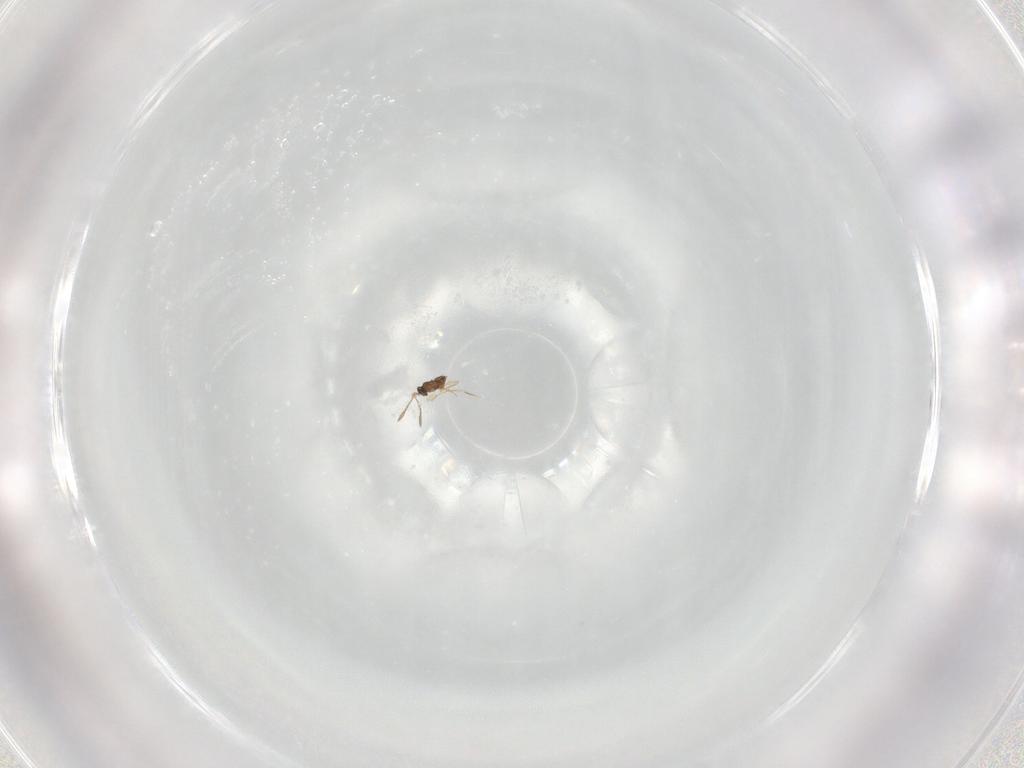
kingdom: Animalia
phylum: Arthropoda
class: Insecta
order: Hymenoptera
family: Mymaridae
